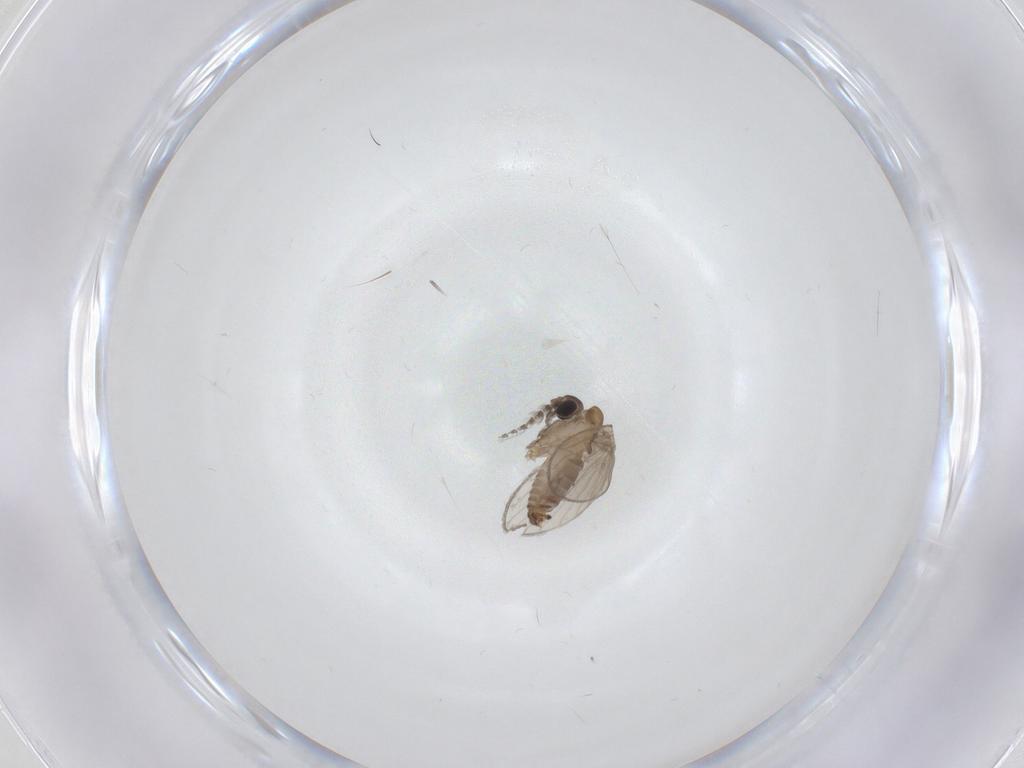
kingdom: Animalia
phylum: Arthropoda
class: Insecta
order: Diptera
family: Cecidomyiidae
